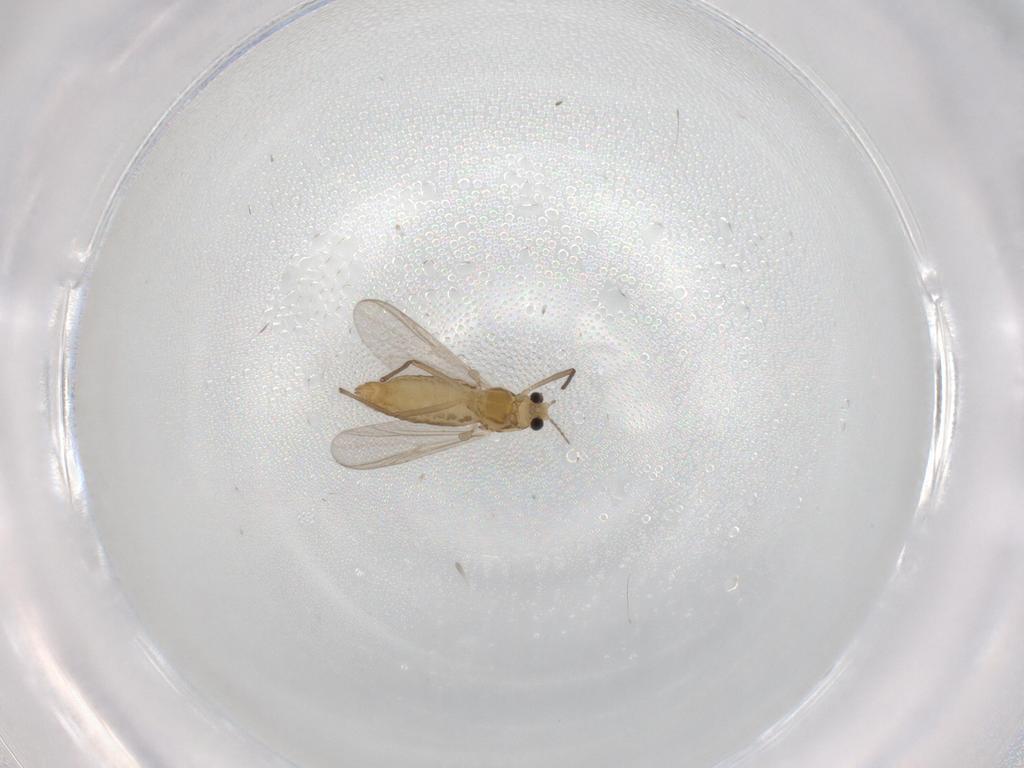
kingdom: Animalia
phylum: Arthropoda
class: Insecta
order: Diptera
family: Chironomidae
